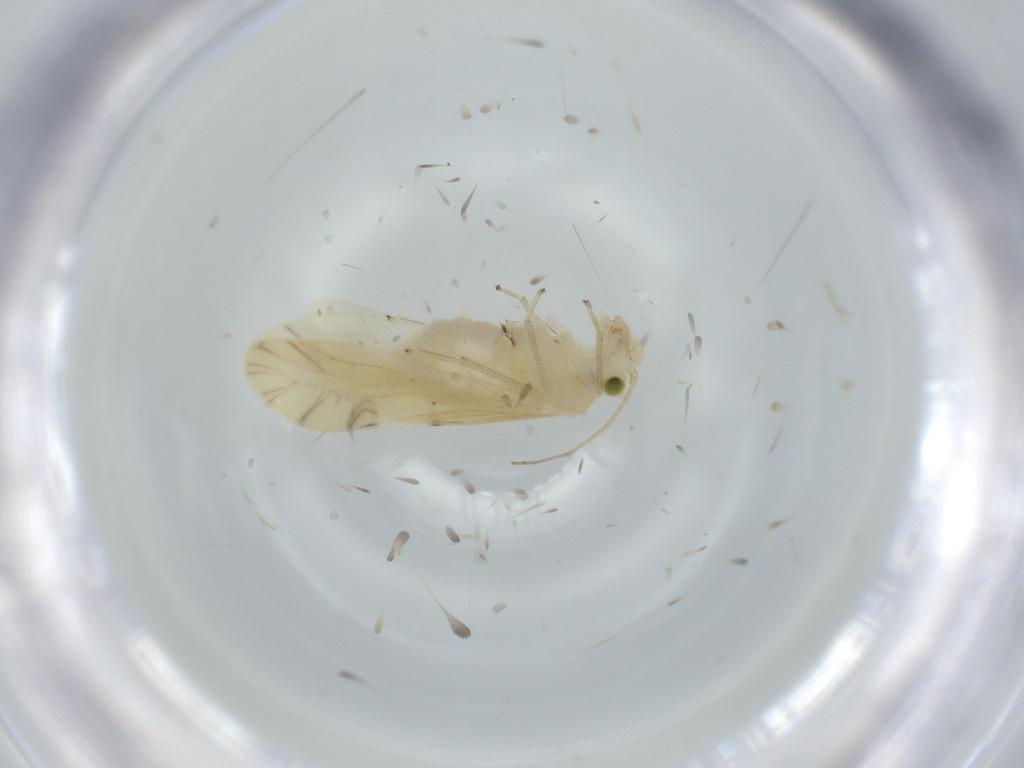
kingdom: Animalia
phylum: Arthropoda
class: Insecta
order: Psocodea
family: Caeciliusidae
